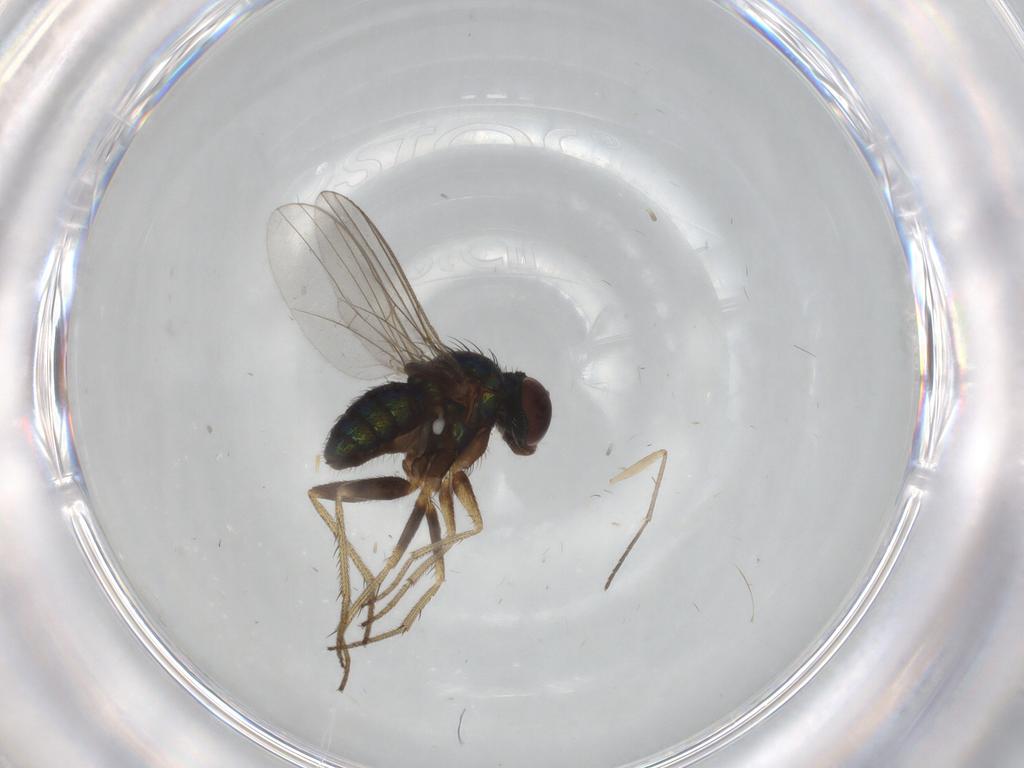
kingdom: Animalia
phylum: Arthropoda
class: Insecta
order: Diptera
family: Dolichopodidae
